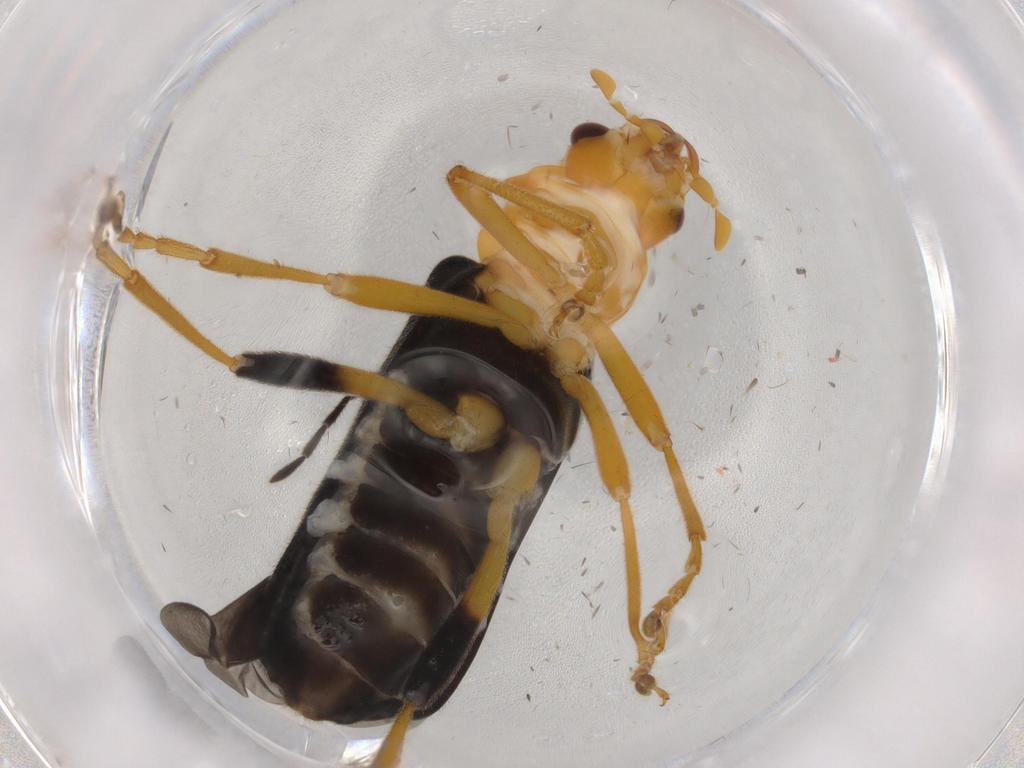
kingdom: Animalia
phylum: Arthropoda
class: Insecta
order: Coleoptera
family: Elateridae
